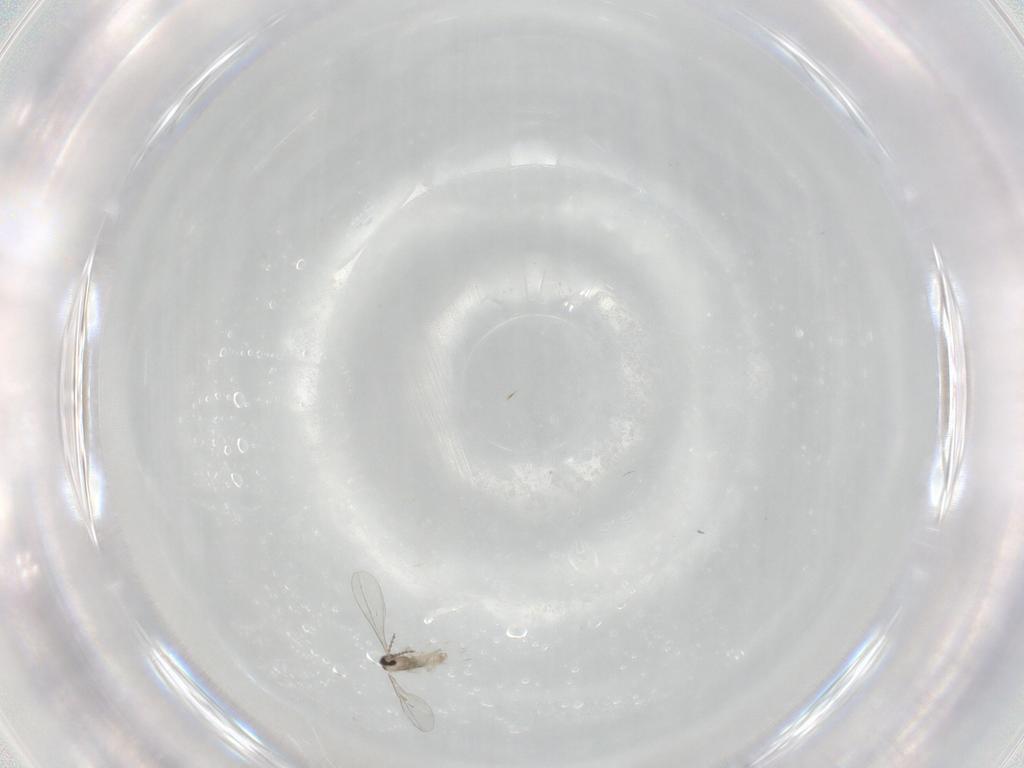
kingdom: Animalia
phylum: Arthropoda
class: Insecta
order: Diptera
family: Cecidomyiidae
